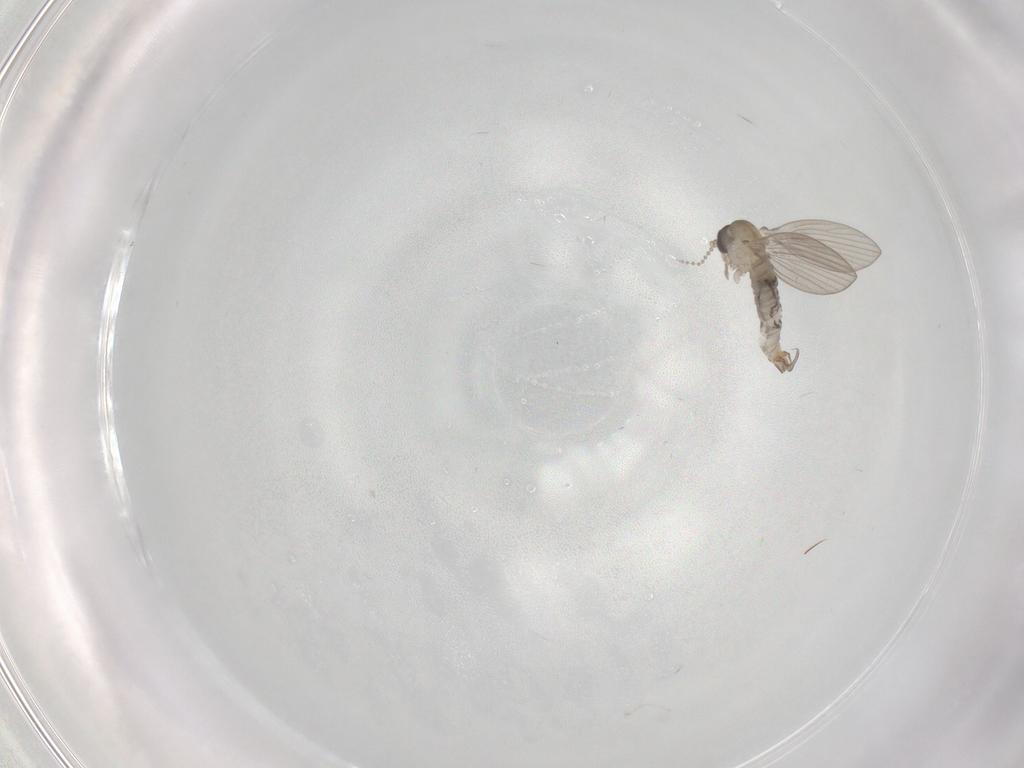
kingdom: Animalia
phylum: Arthropoda
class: Insecta
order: Diptera
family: Psychodidae
